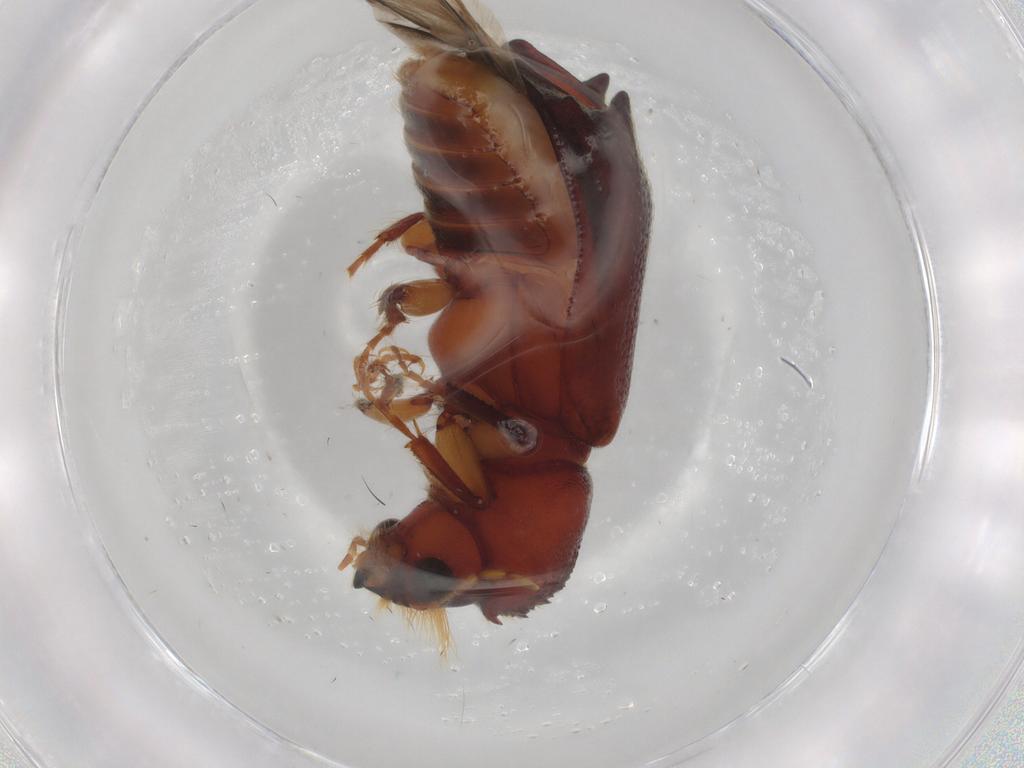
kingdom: Animalia
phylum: Arthropoda
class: Insecta
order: Coleoptera
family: Bostrichidae
